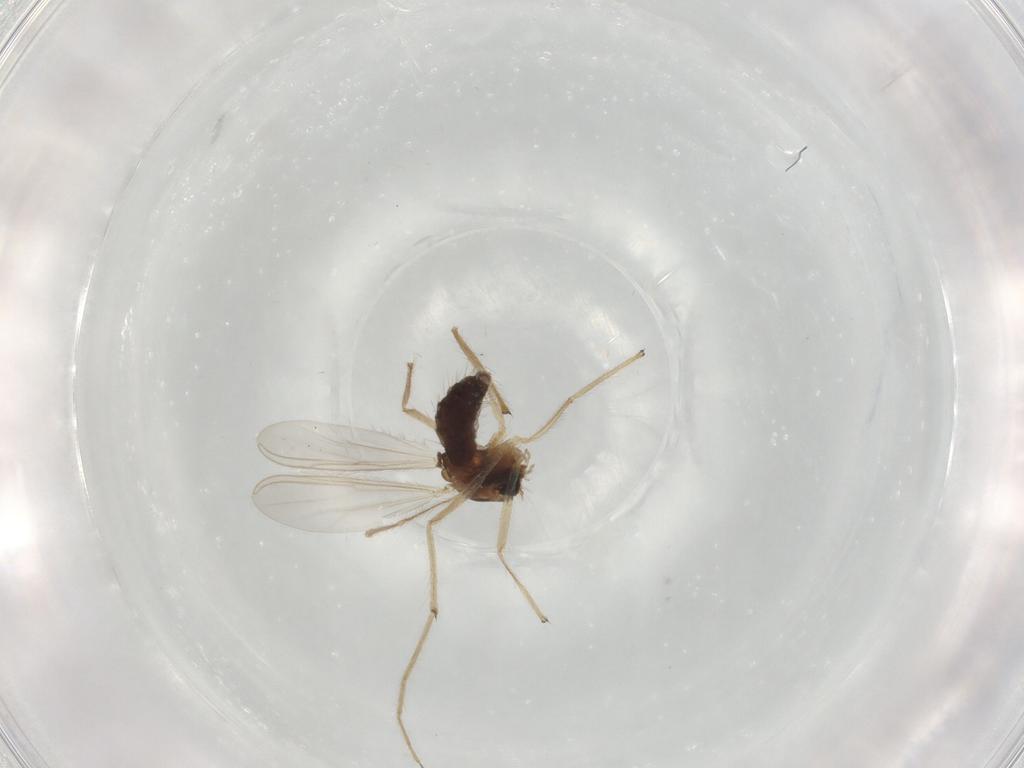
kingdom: Animalia
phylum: Arthropoda
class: Insecta
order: Diptera
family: Chironomidae
